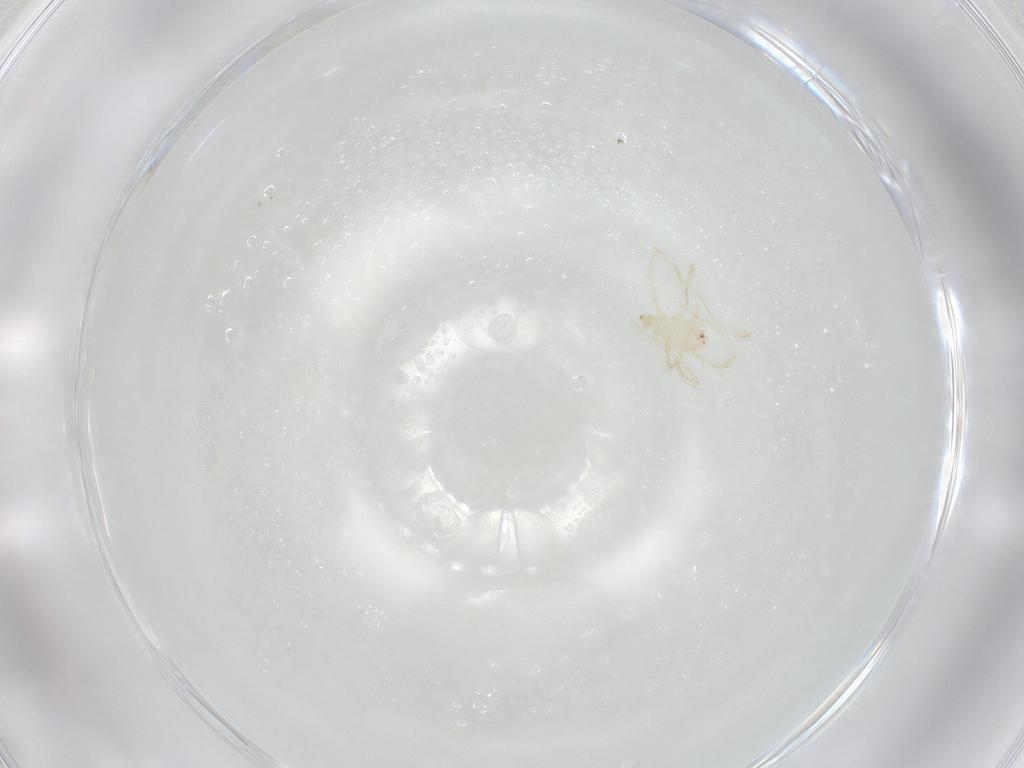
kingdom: Animalia
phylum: Arthropoda
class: Arachnida
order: Trombidiformes
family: Erythraeidae
